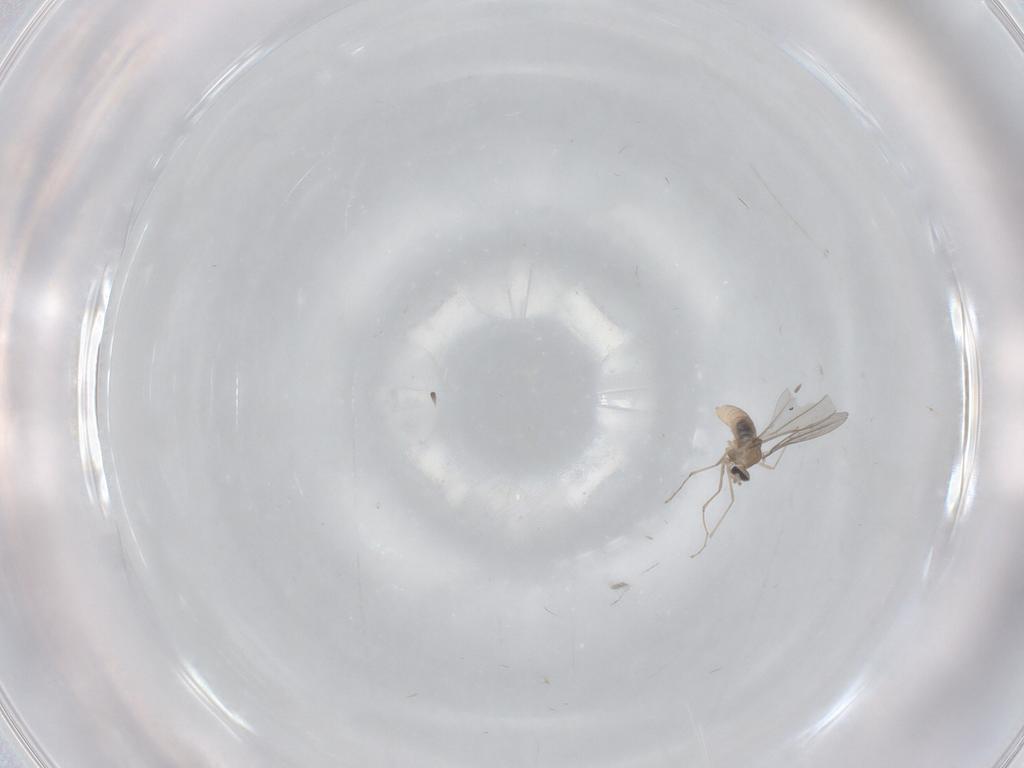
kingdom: Animalia
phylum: Arthropoda
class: Insecta
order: Diptera
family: Cecidomyiidae
